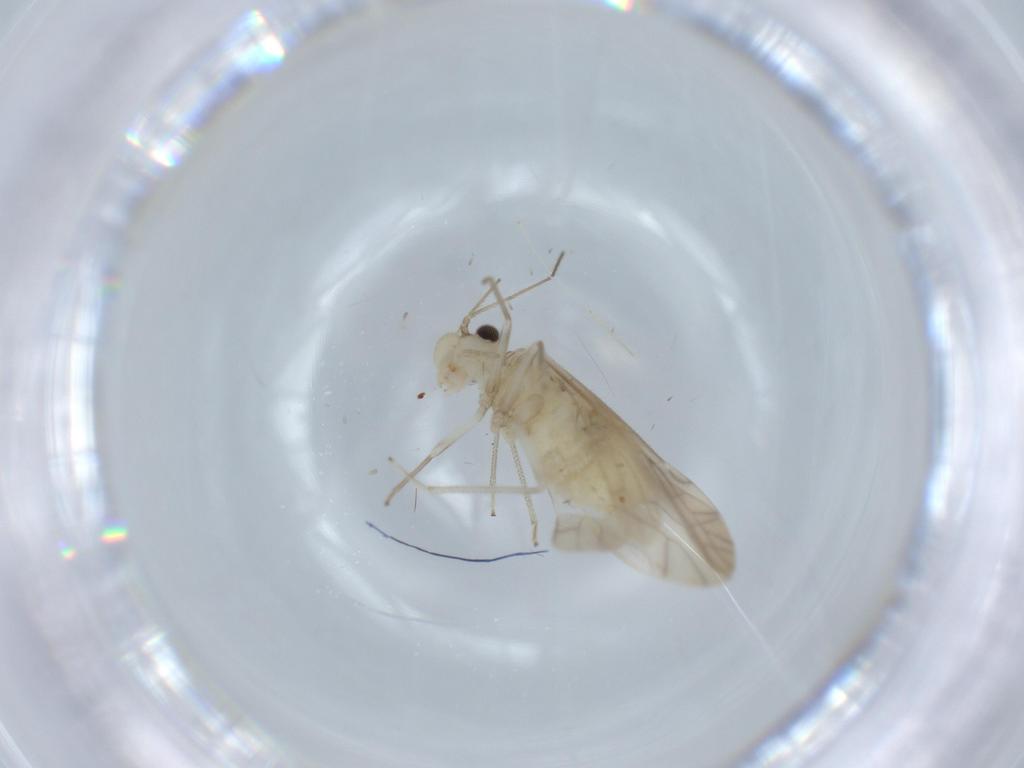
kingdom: Animalia
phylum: Arthropoda
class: Insecta
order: Psocodea
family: Caeciliusidae
